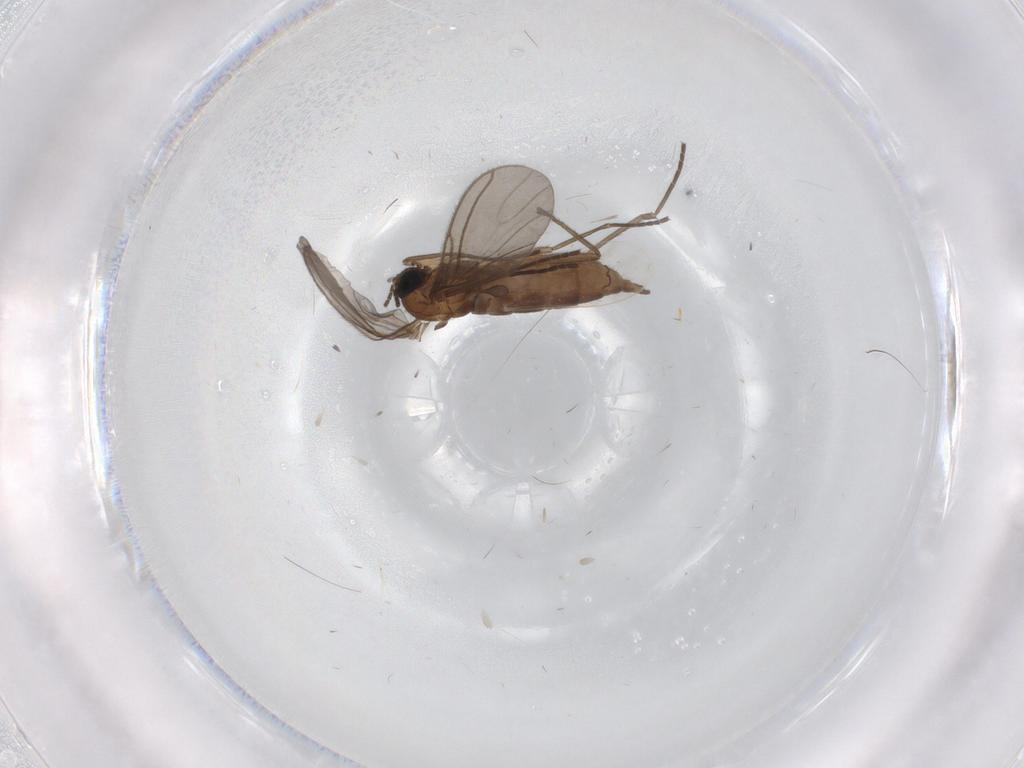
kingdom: Animalia
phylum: Arthropoda
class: Insecta
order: Diptera
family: Cecidomyiidae
